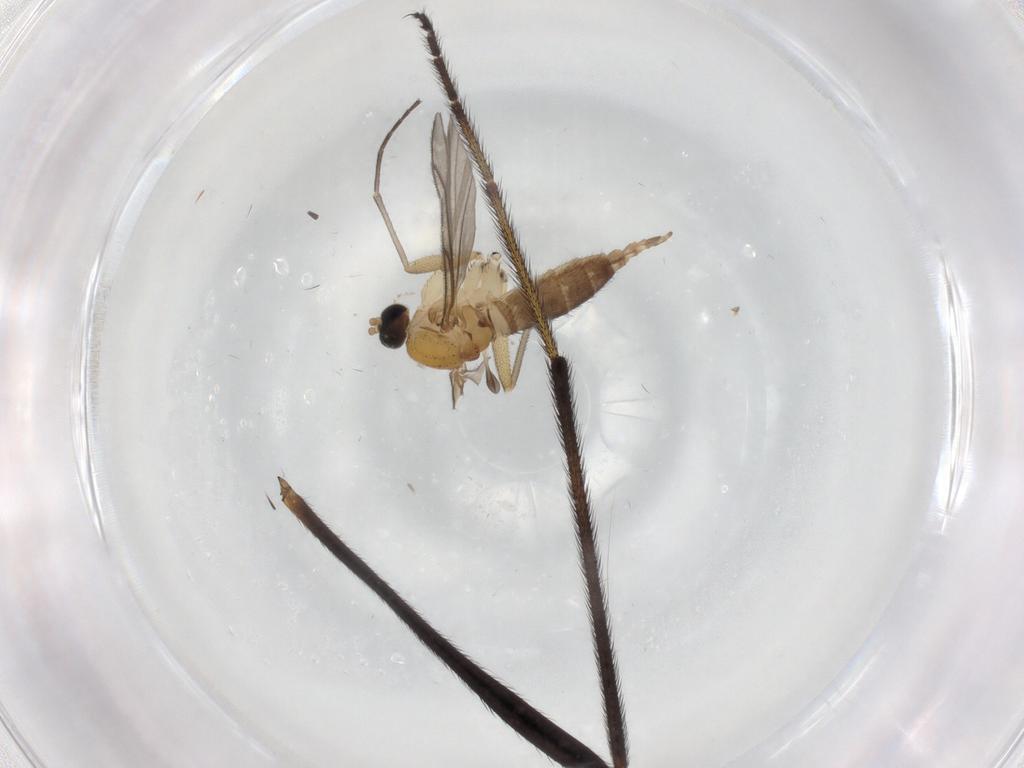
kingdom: Animalia
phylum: Arthropoda
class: Insecta
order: Diptera
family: Limoniidae
